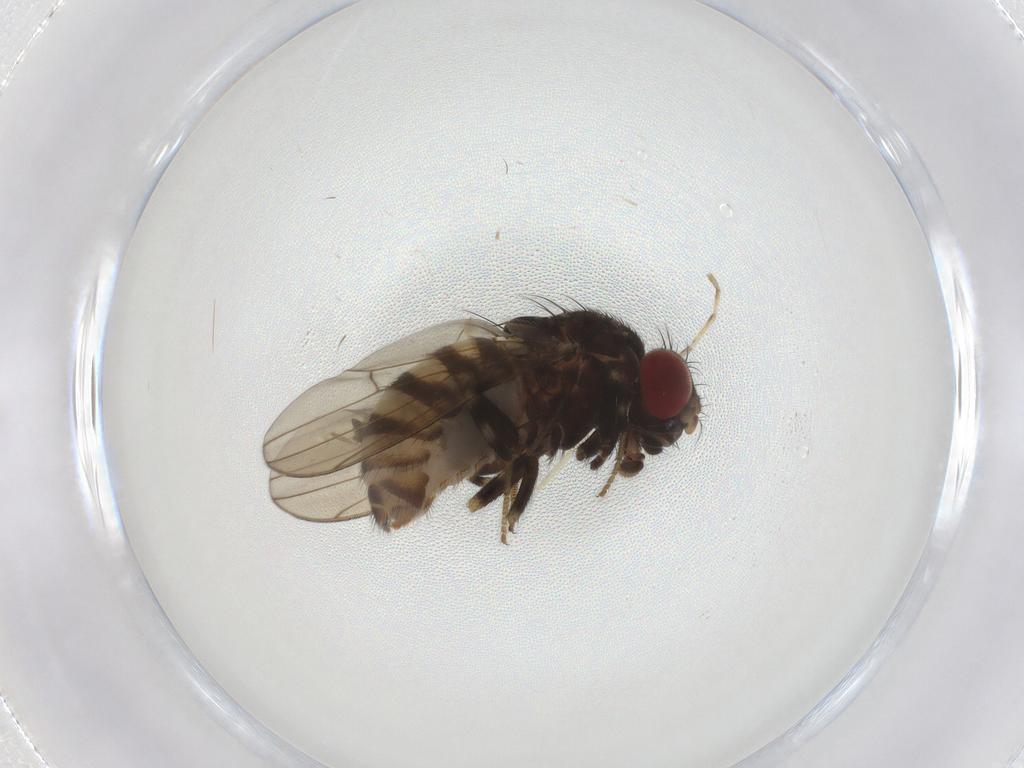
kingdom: Animalia
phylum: Arthropoda
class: Insecta
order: Diptera
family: Drosophilidae
